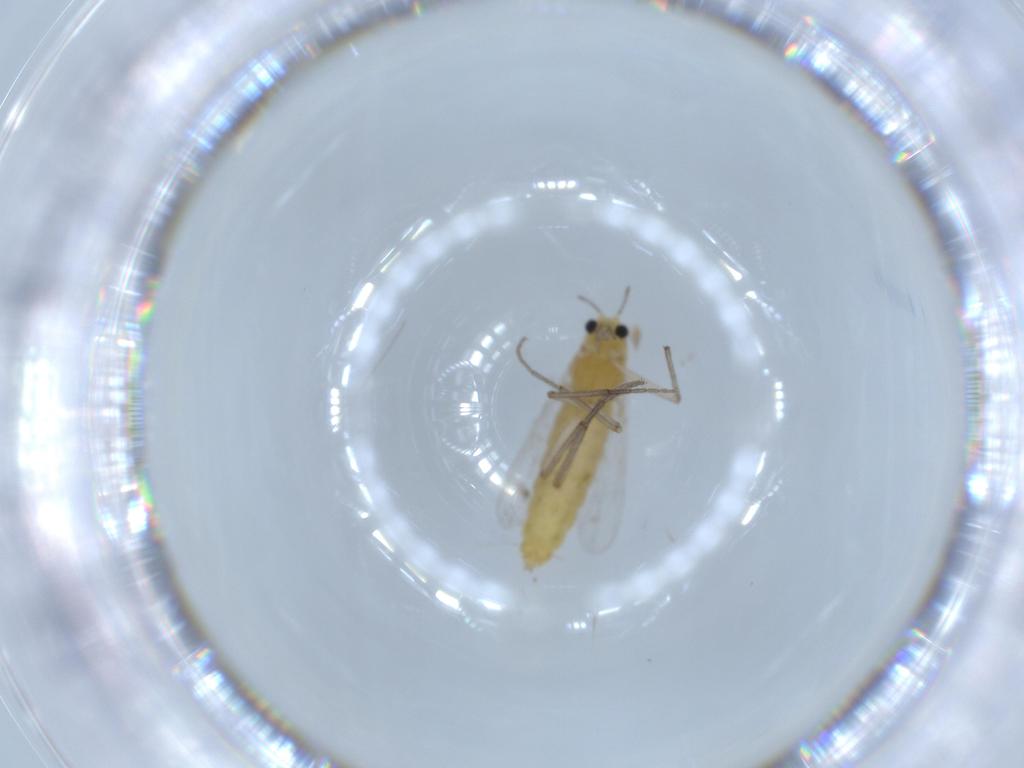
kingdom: Animalia
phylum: Arthropoda
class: Insecta
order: Diptera
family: Chironomidae
